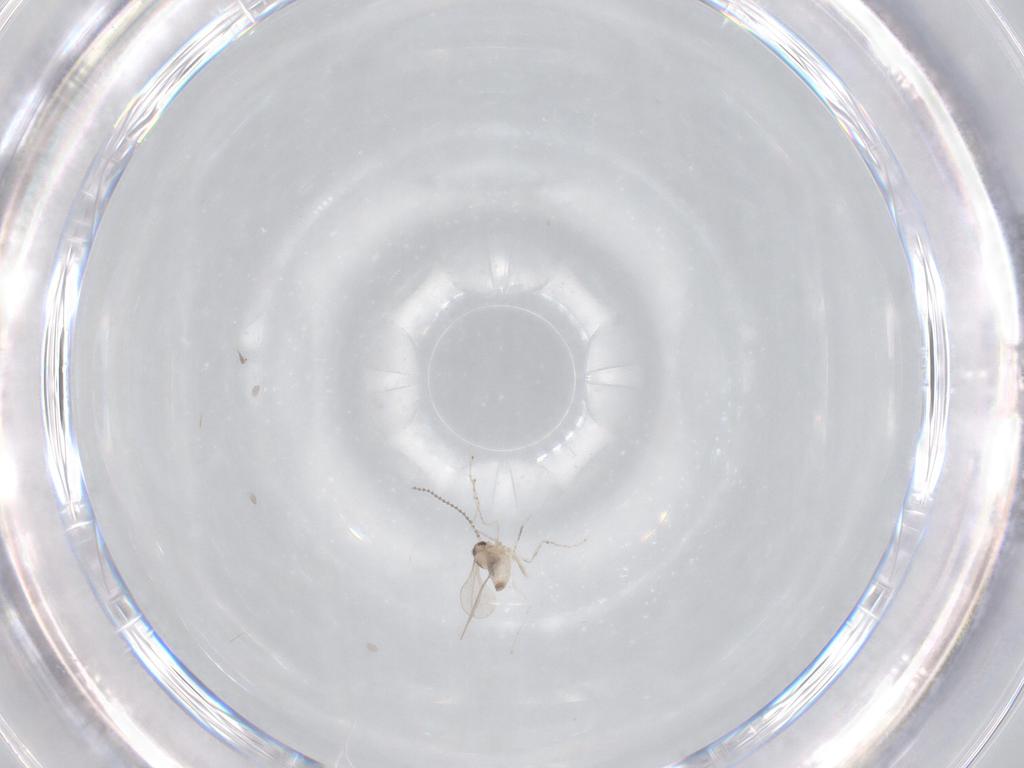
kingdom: Animalia
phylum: Arthropoda
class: Insecta
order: Diptera
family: Cecidomyiidae
